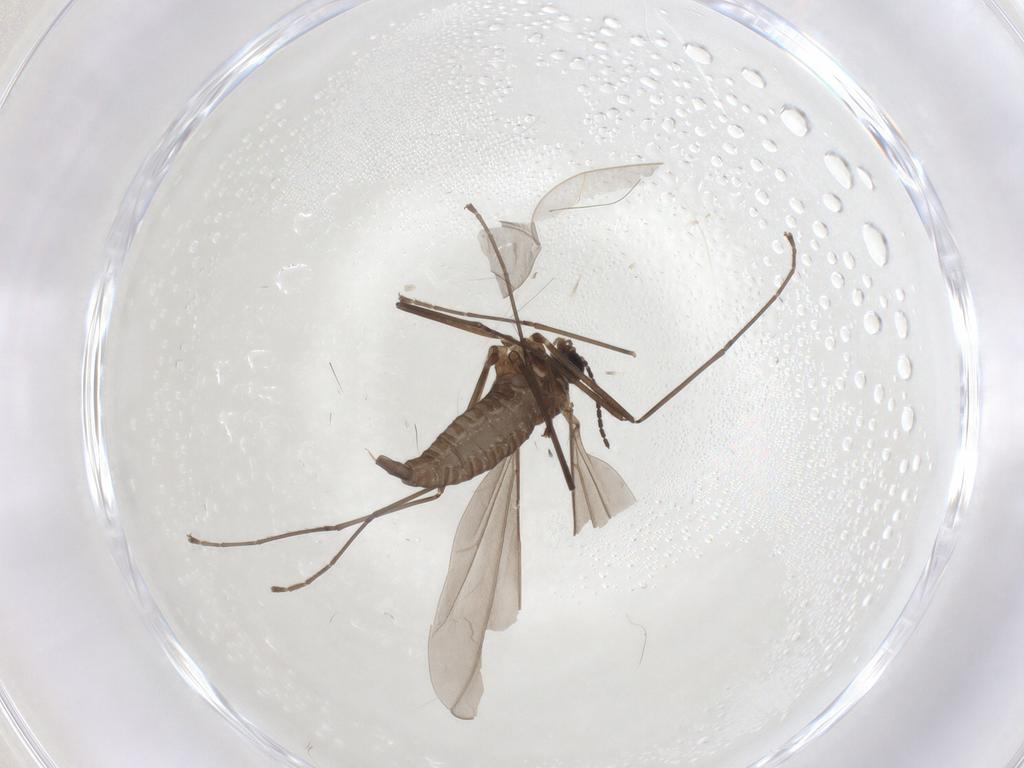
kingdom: Animalia
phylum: Arthropoda
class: Insecta
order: Diptera
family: Cecidomyiidae
